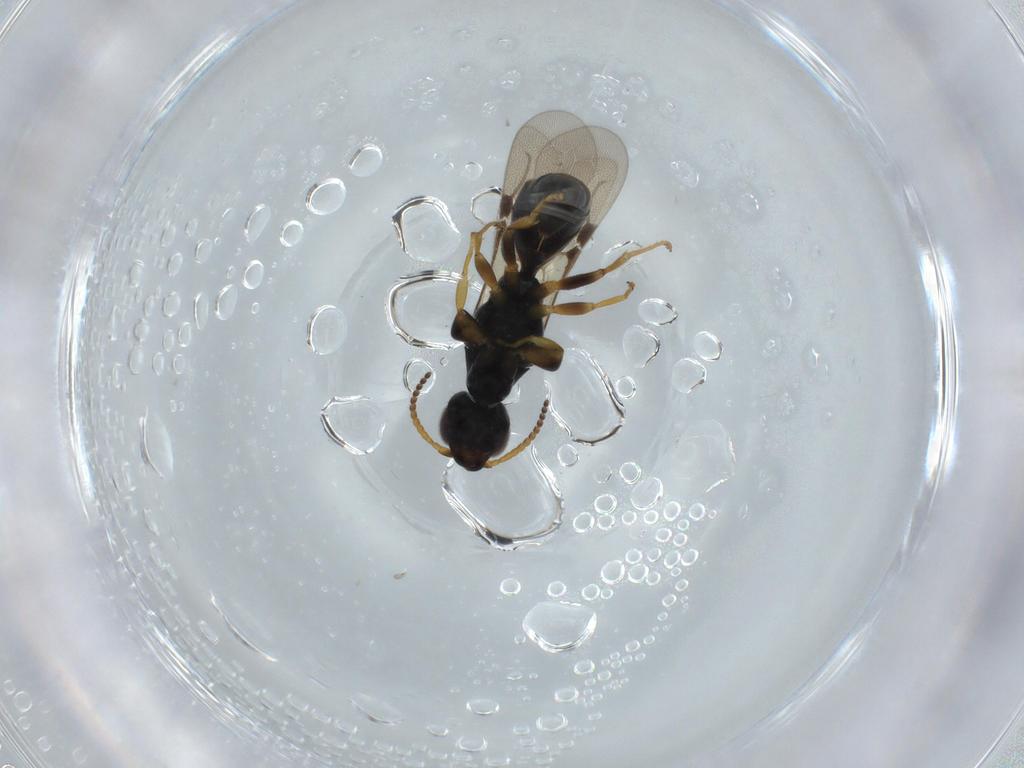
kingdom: Animalia
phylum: Arthropoda
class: Insecta
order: Hymenoptera
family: Bethylidae
